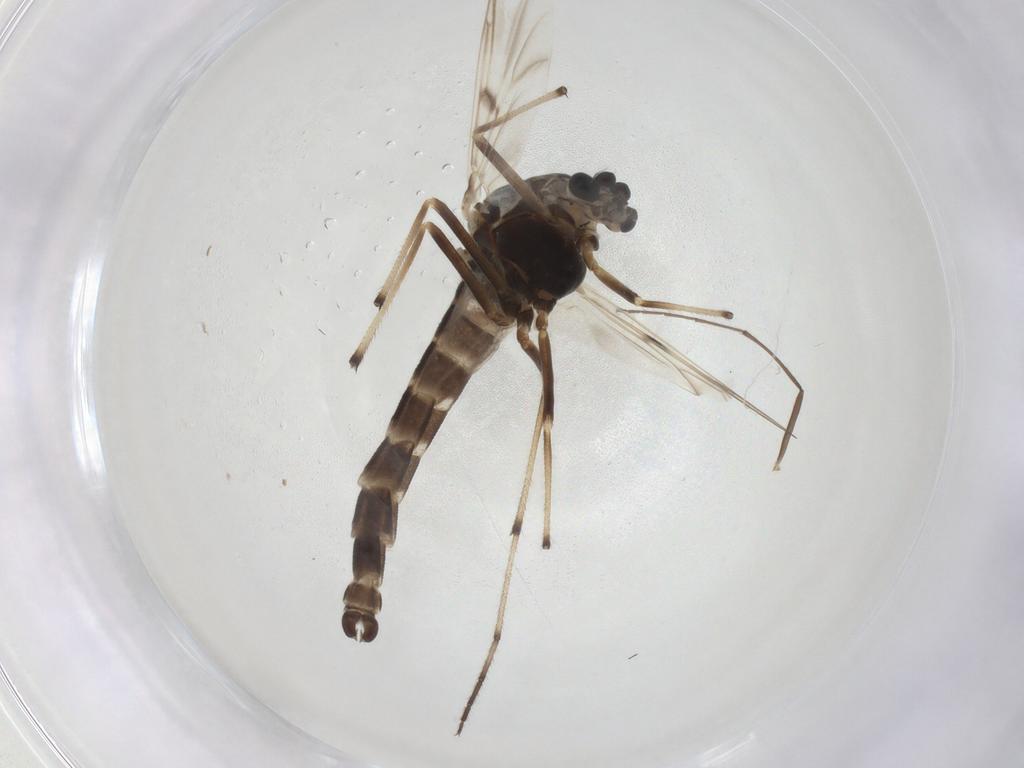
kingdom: Animalia
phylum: Arthropoda
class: Insecta
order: Diptera
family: Chironomidae
